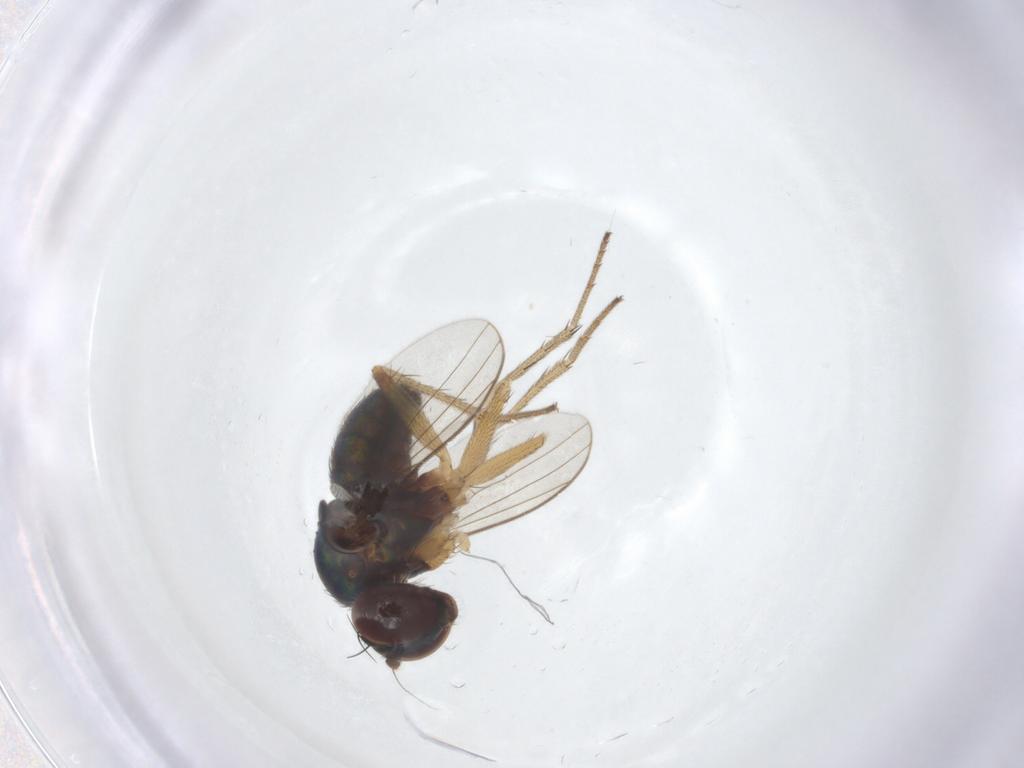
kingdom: Animalia
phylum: Arthropoda
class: Insecta
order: Diptera
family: Dolichopodidae
